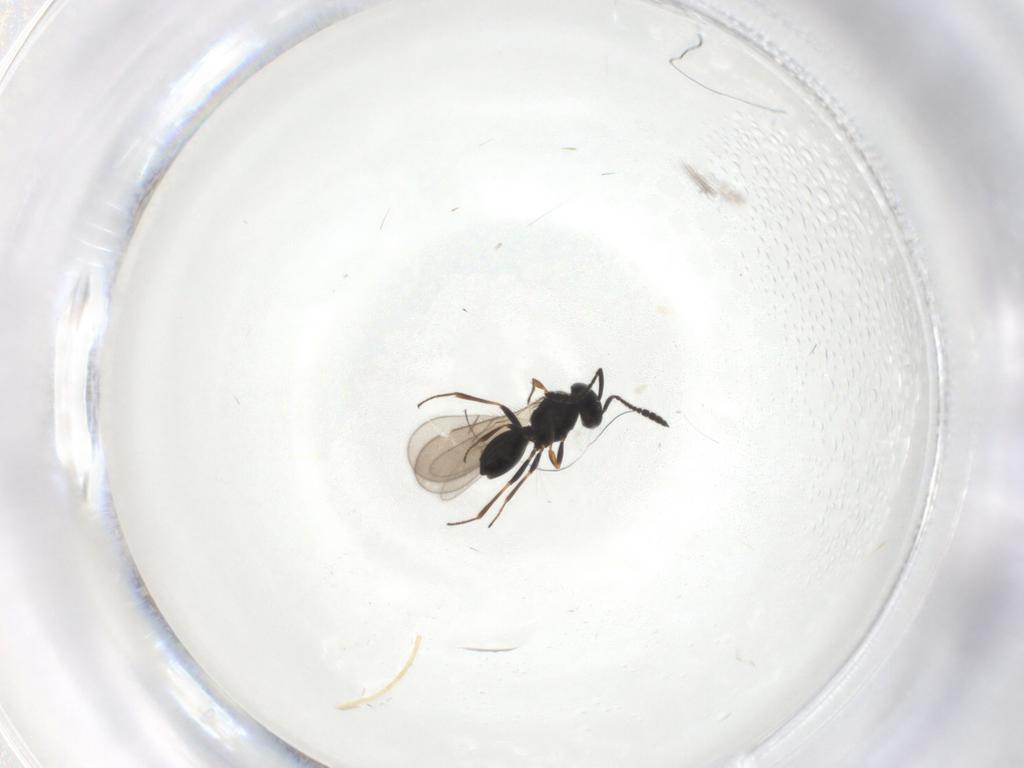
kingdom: Animalia
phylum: Arthropoda
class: Insecta
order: Hymenoptera
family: Scelionidae
